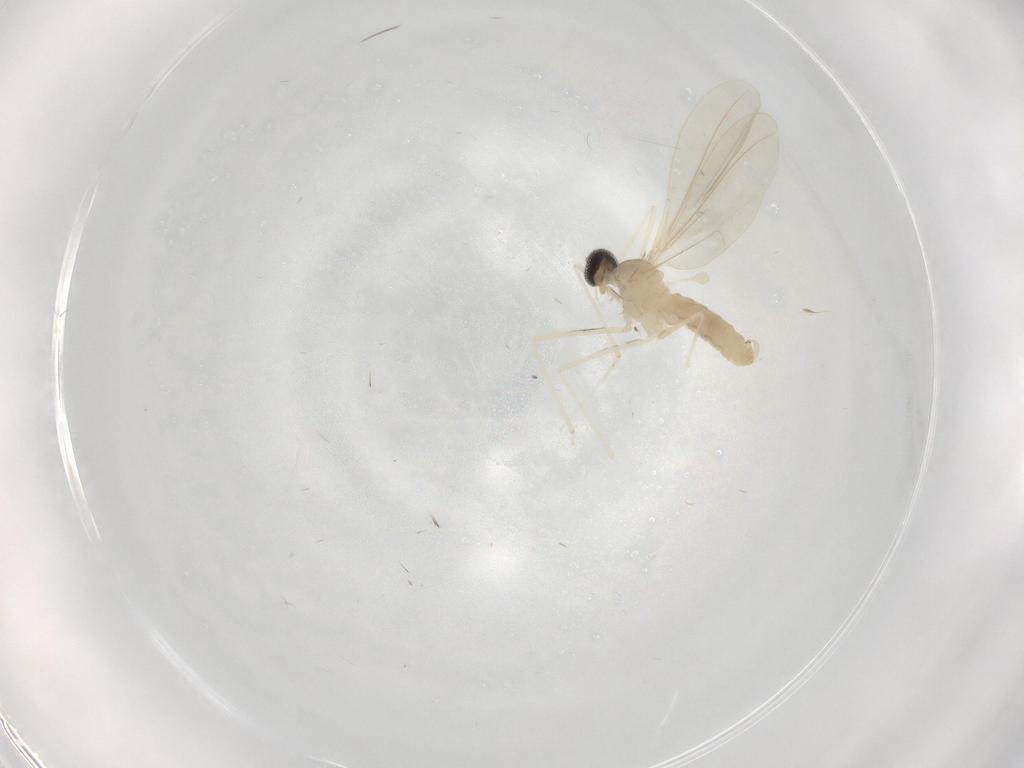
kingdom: Animalia
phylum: Arthropoda
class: Insecta
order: Diptera
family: Cecidomyiidae
